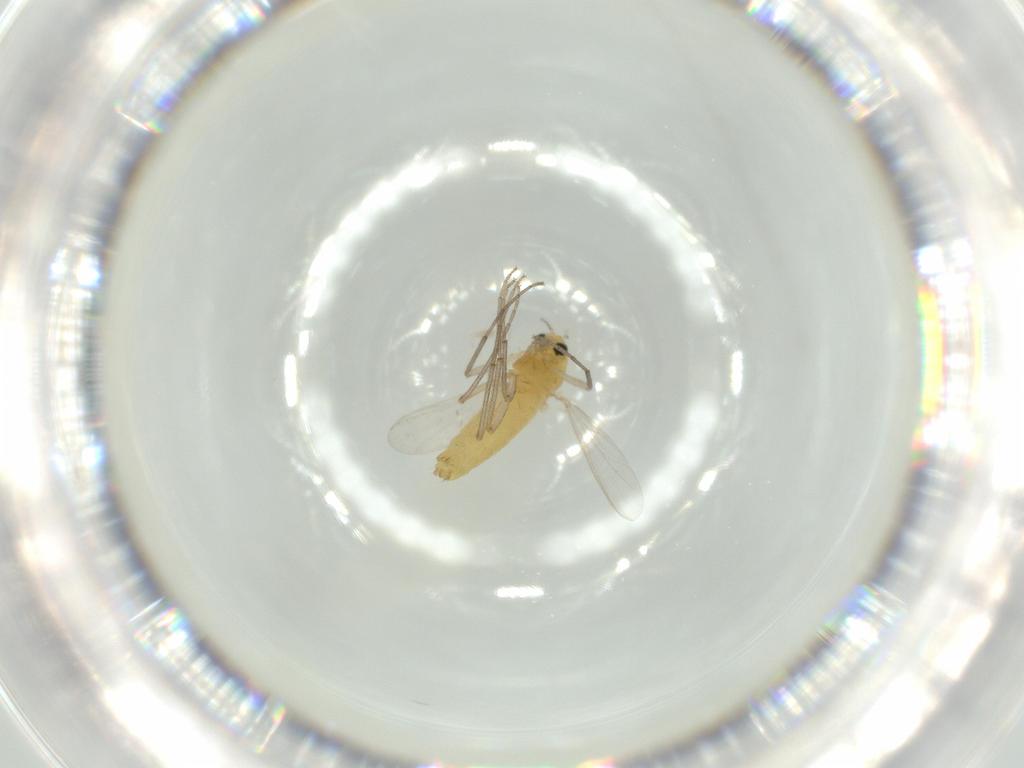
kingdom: Animalia
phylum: Arthropoda
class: Insecta
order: Diptera
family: Chironomidae
